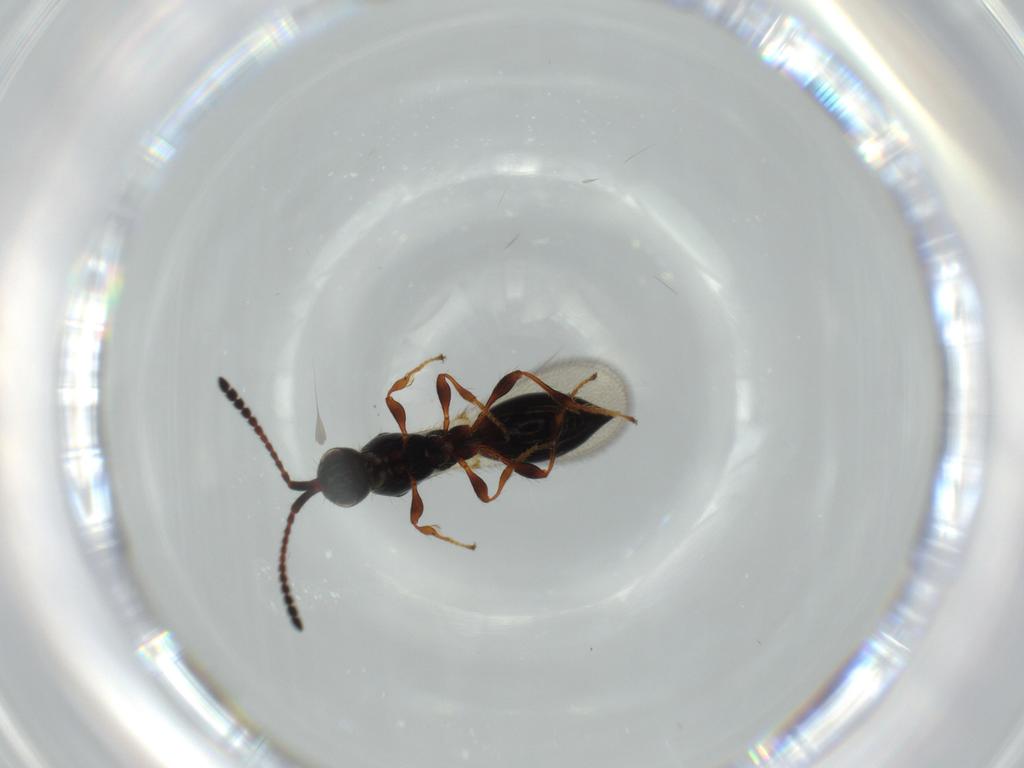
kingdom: Animalia
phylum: Arthropoda
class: Insecta
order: Hymenoptera
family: Diapriidae
